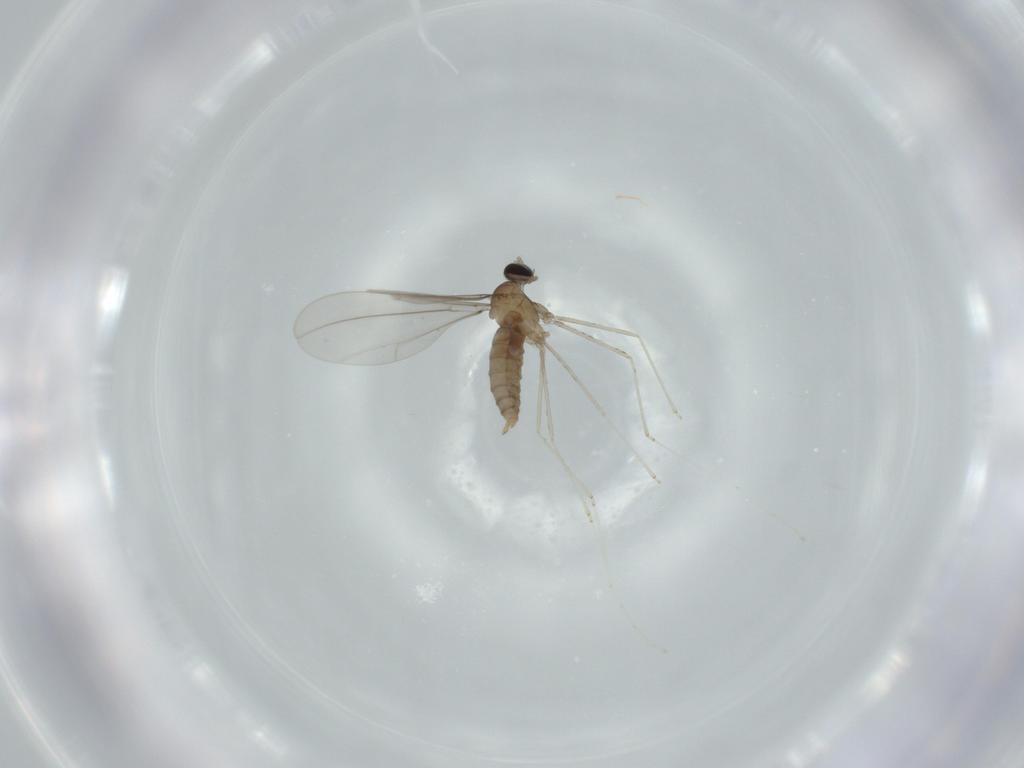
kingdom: Animalia
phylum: Arthropoda
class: Insecta
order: Diptera
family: Cecidomyiidae
